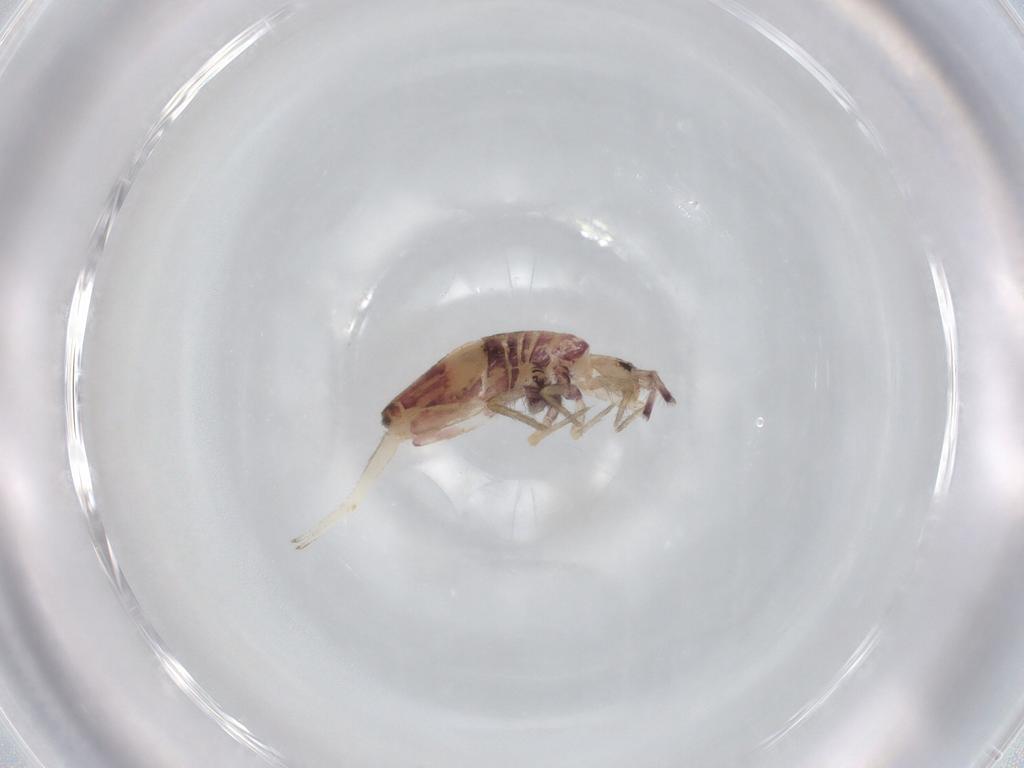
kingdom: Animalia
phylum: Arthropoda
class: Collembola
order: Entomobryomorpha
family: Entomobryidae
